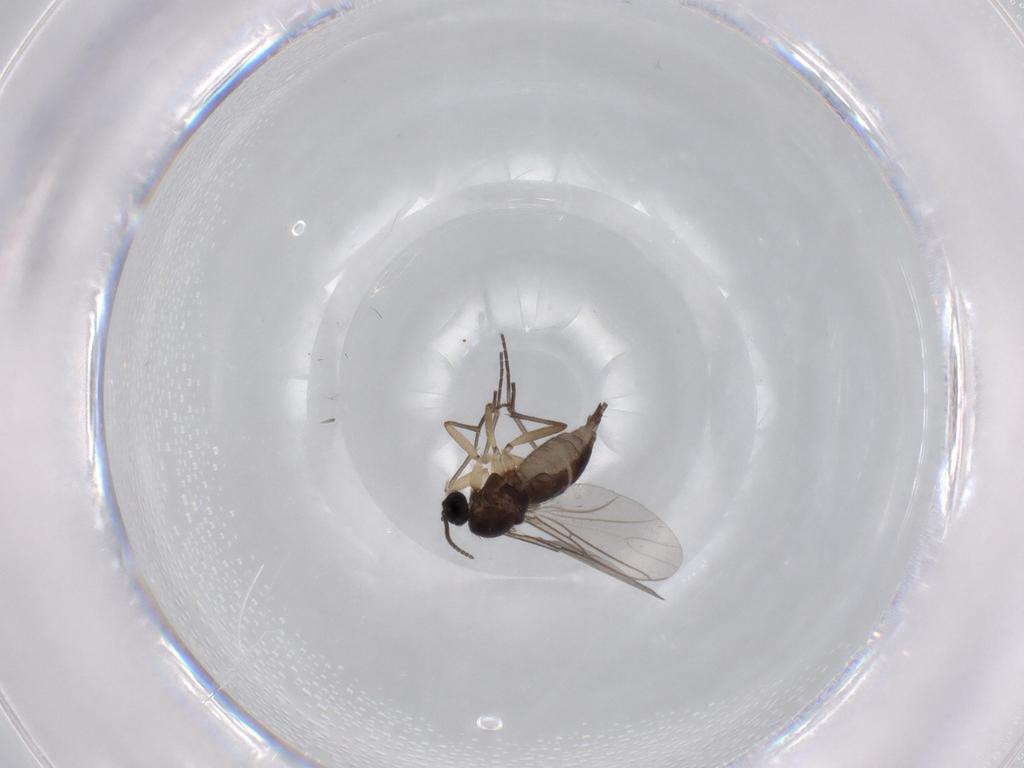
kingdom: Animalia
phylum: Arthropoda
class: Insecta
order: Diptera
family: Sciaridae
